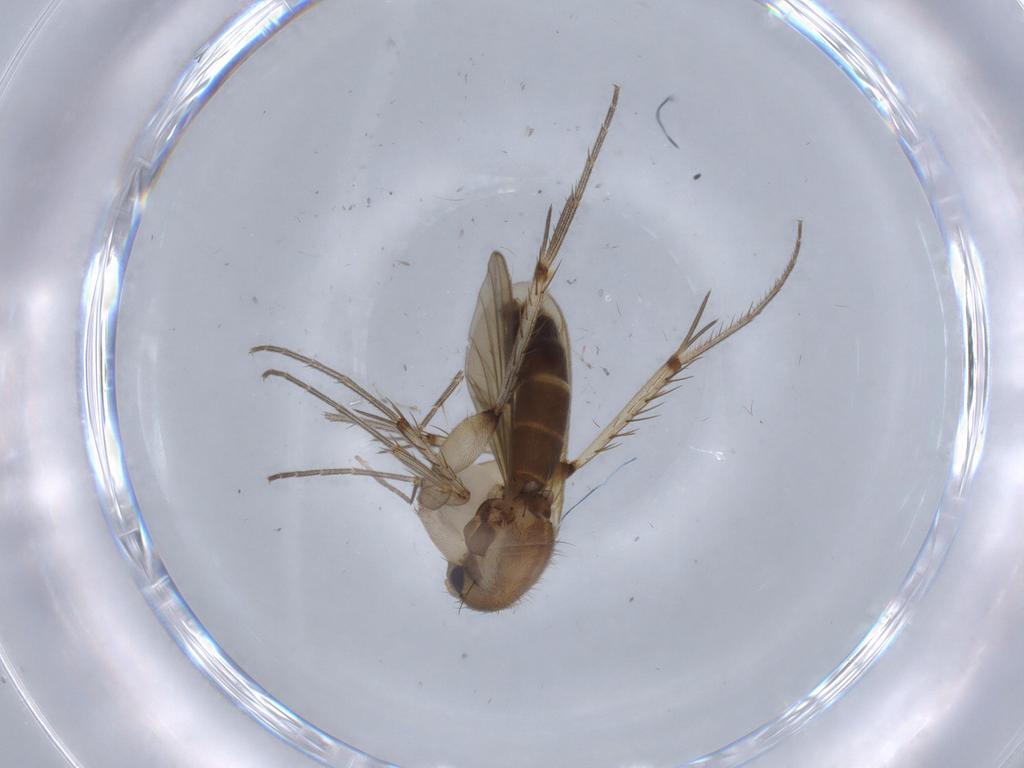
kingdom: Animalia
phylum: Arthropoda
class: Insecta
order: Diptera
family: Mycetophilidae
